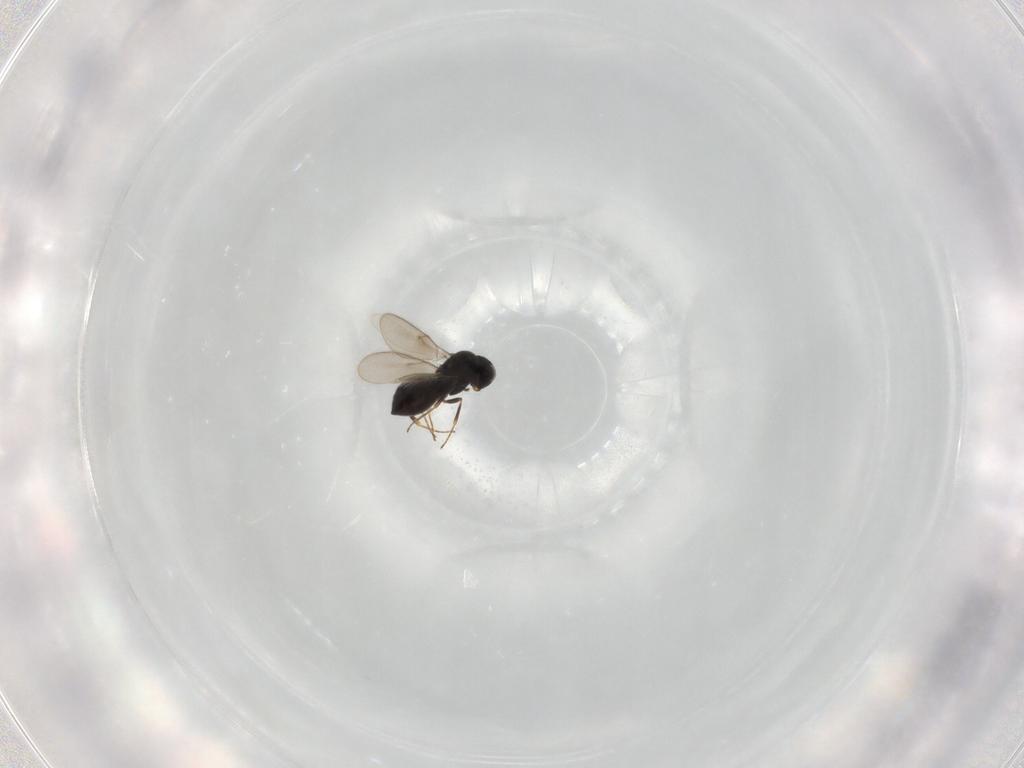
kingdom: Animalia
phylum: Arthropoda
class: Insecta
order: Hymenoptera
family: Scelionidae
